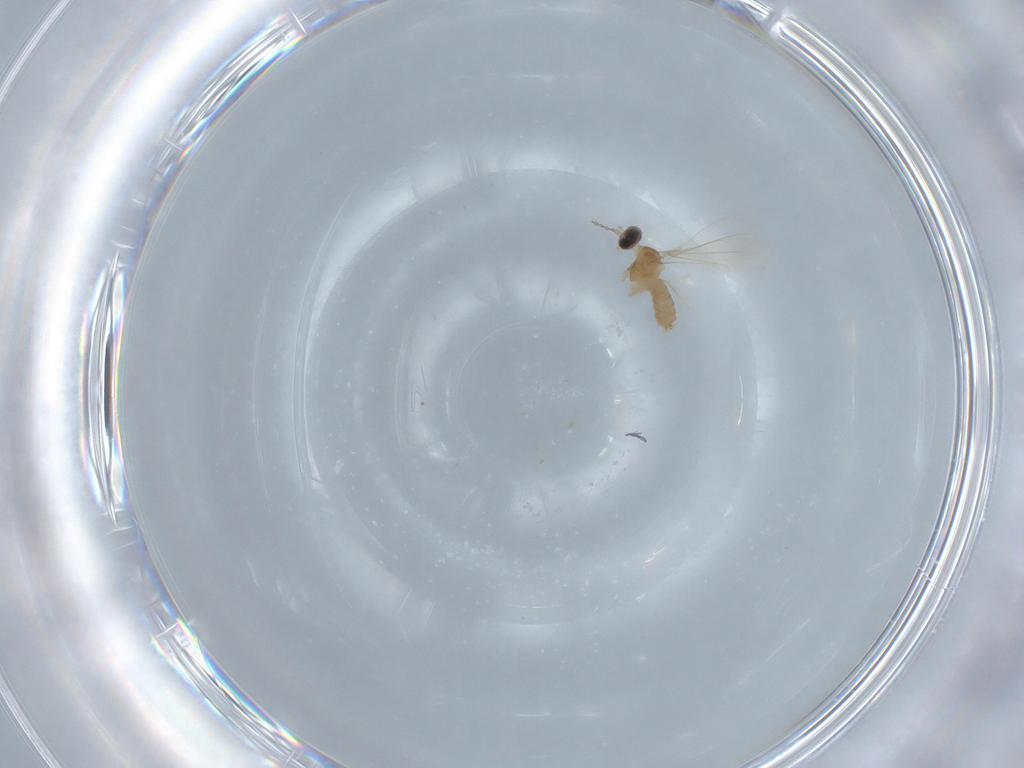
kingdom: Animalia
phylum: Arthropoda
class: Insecta
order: Diptera
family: Cecidomyiidae
